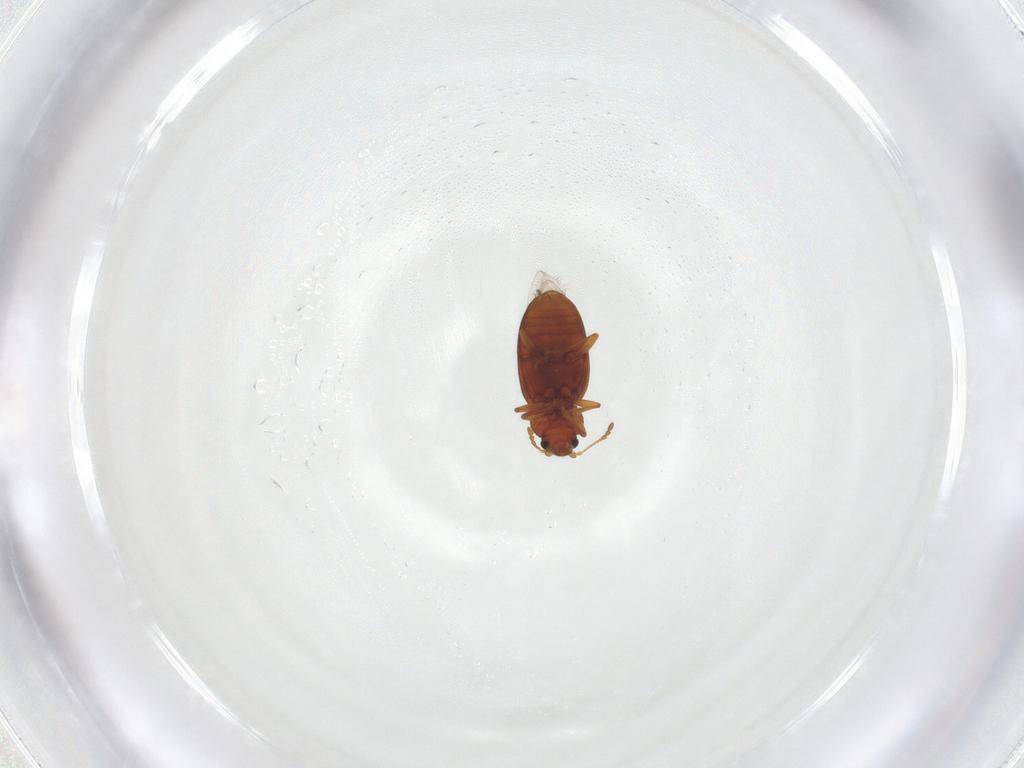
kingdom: Animalia
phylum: Arthropoda
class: Insecta
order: Coleoptera
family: Latridiidae
